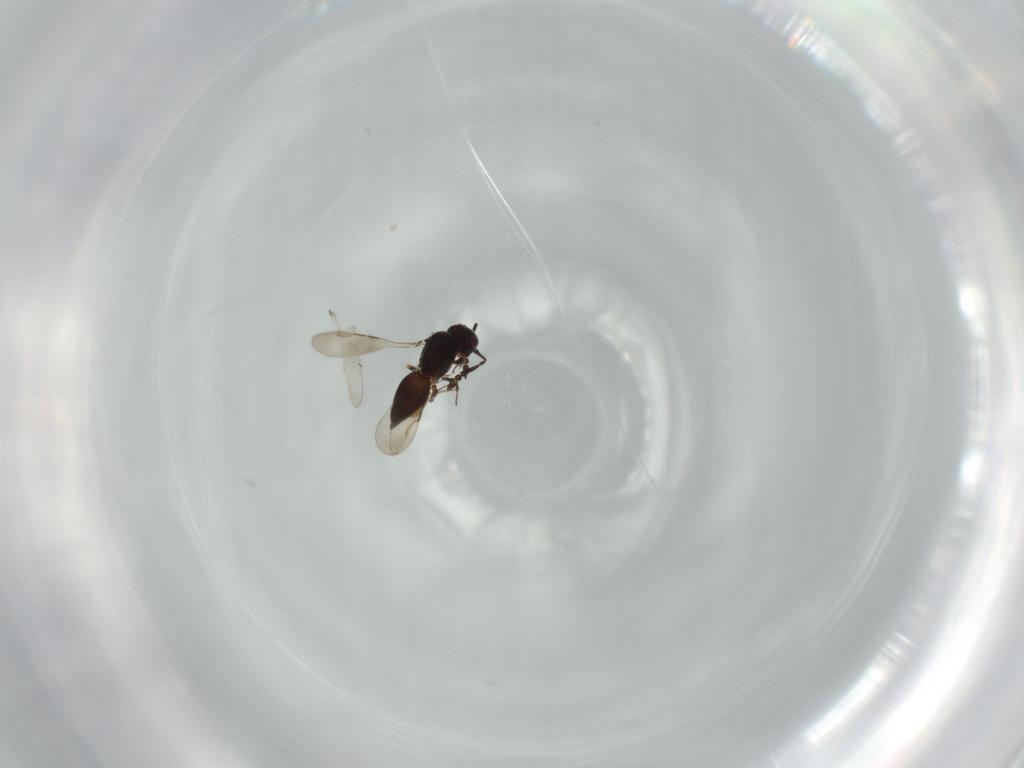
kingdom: Animalia
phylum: Arthropoda
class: Insecta
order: Hymenoptera
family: Ceraphronidae
